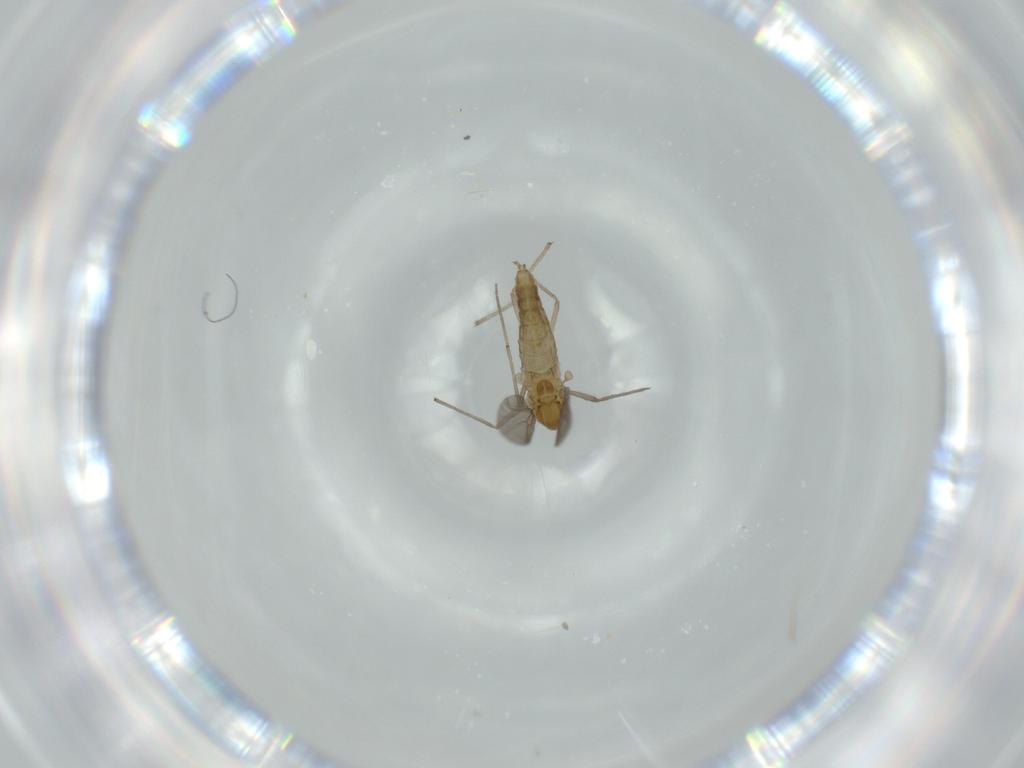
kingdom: Animalia
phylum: Arthropoda
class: Insecta
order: Diptera
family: Chironomidae
